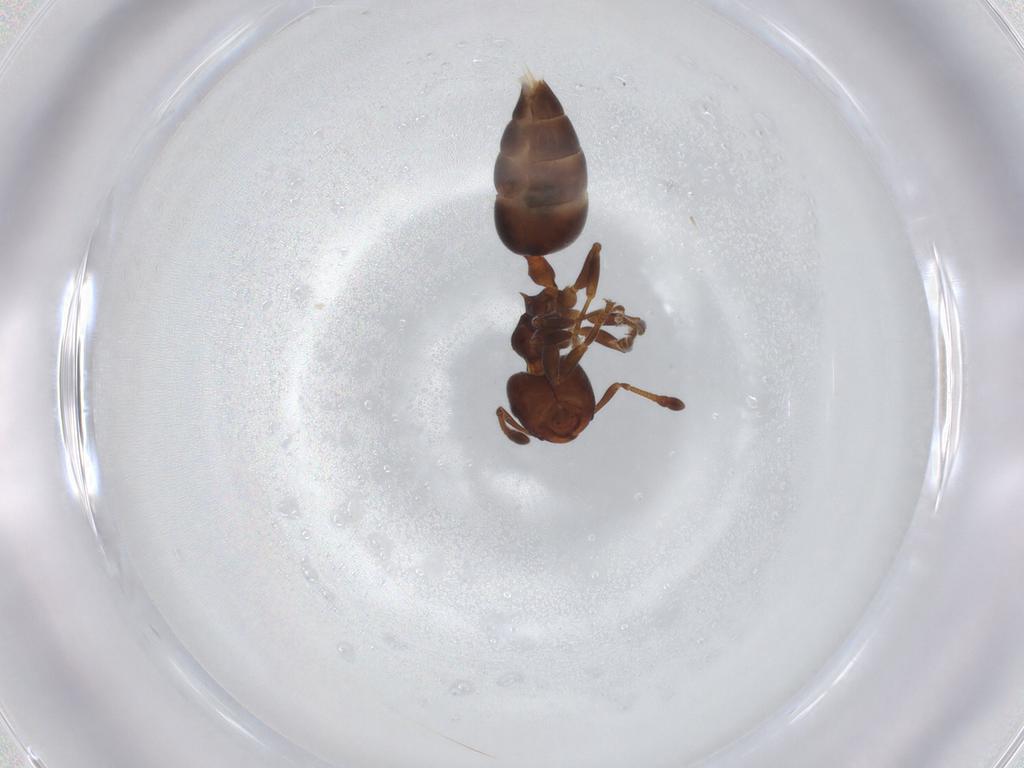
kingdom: Animalia
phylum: Arthropoda
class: Insecta
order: Hymenoptera
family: Formicidae
